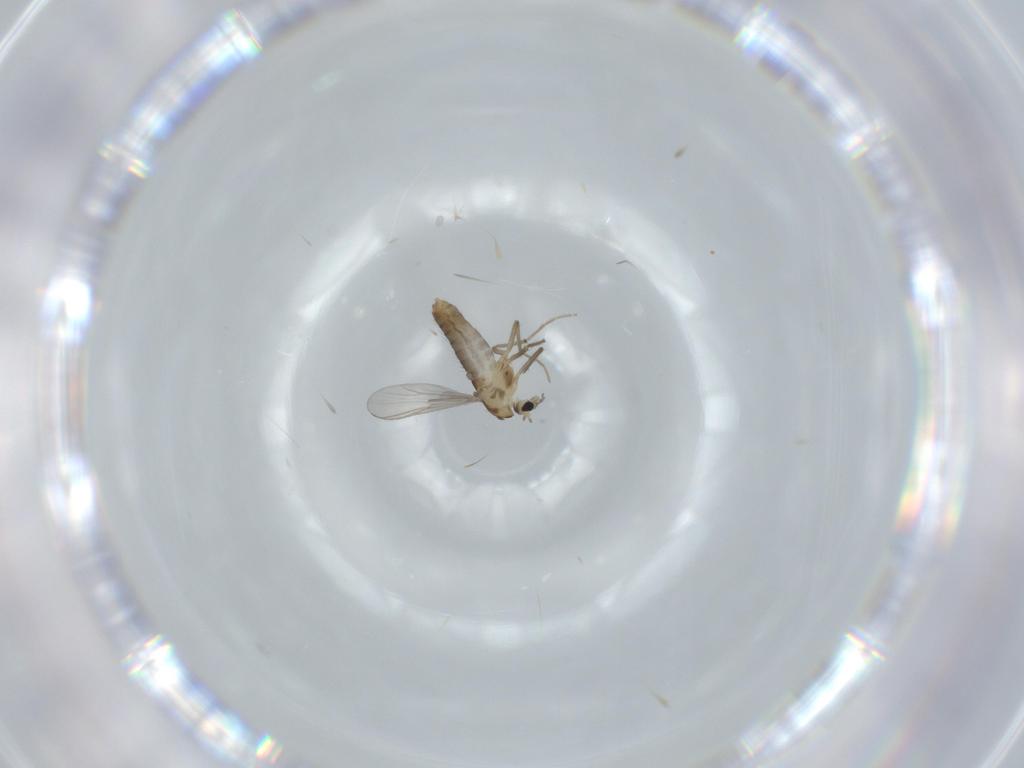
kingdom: Animalia
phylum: Arthropoda
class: Insecta
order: Diptera
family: Chironomidae
